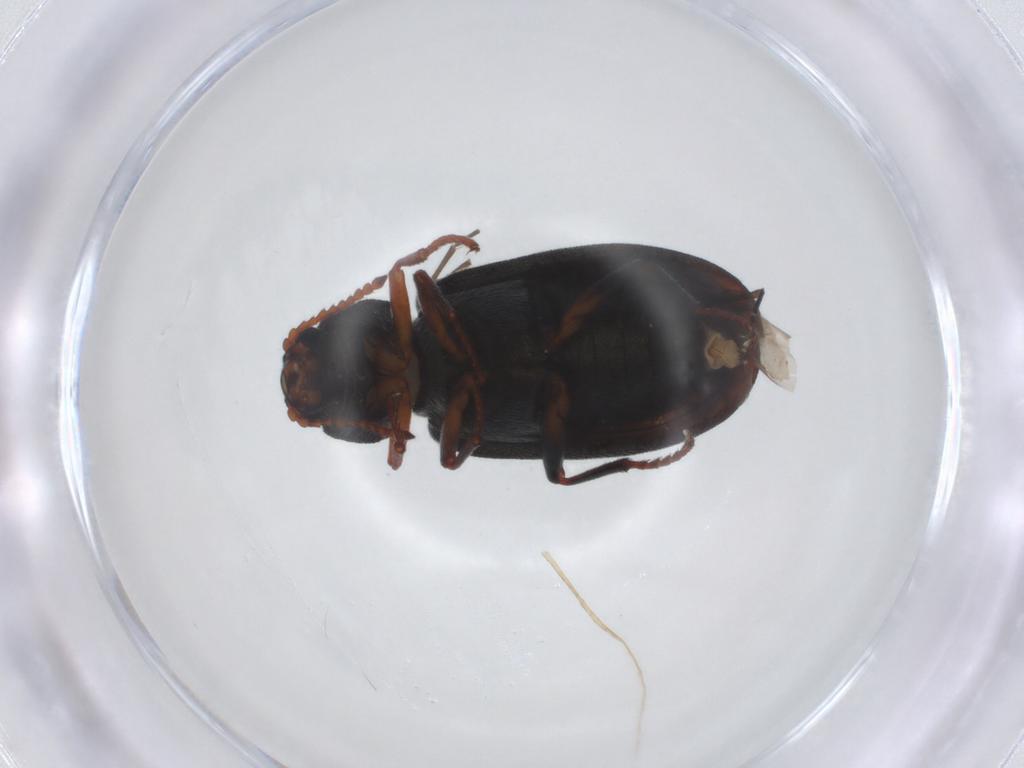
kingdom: Animalia
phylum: Arthropoda
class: Insecta
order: Coleoptera
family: Melyridae
